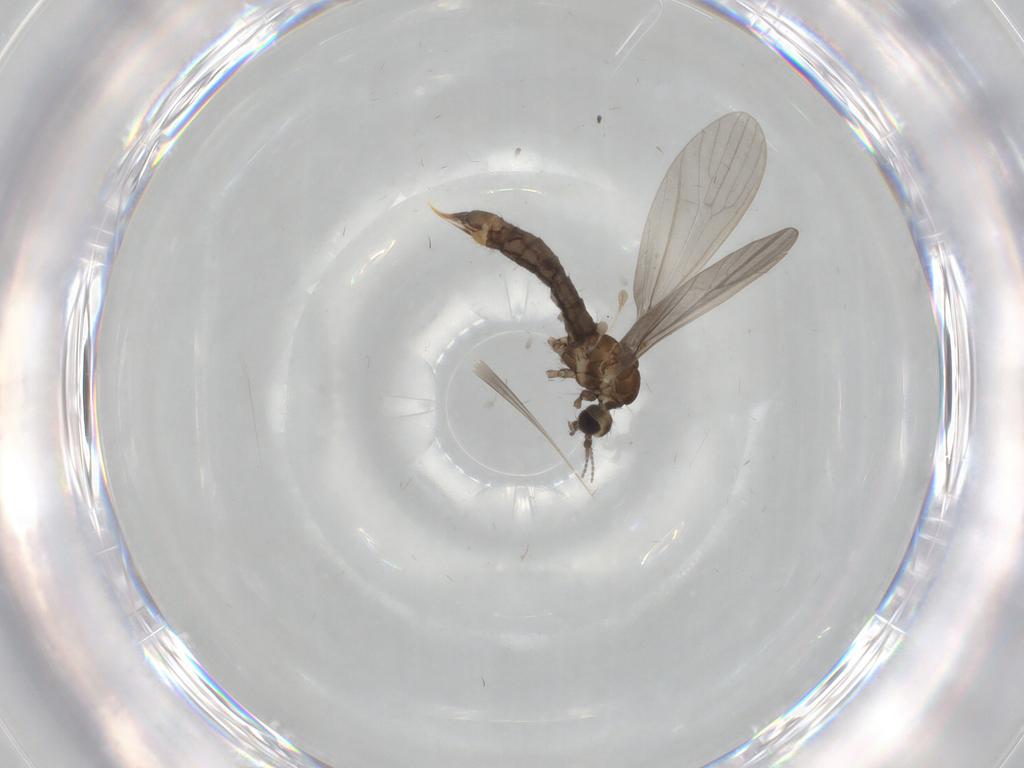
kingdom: Animalia
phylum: Arthropoda
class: Insecta
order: Diptera
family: Limoniidae
